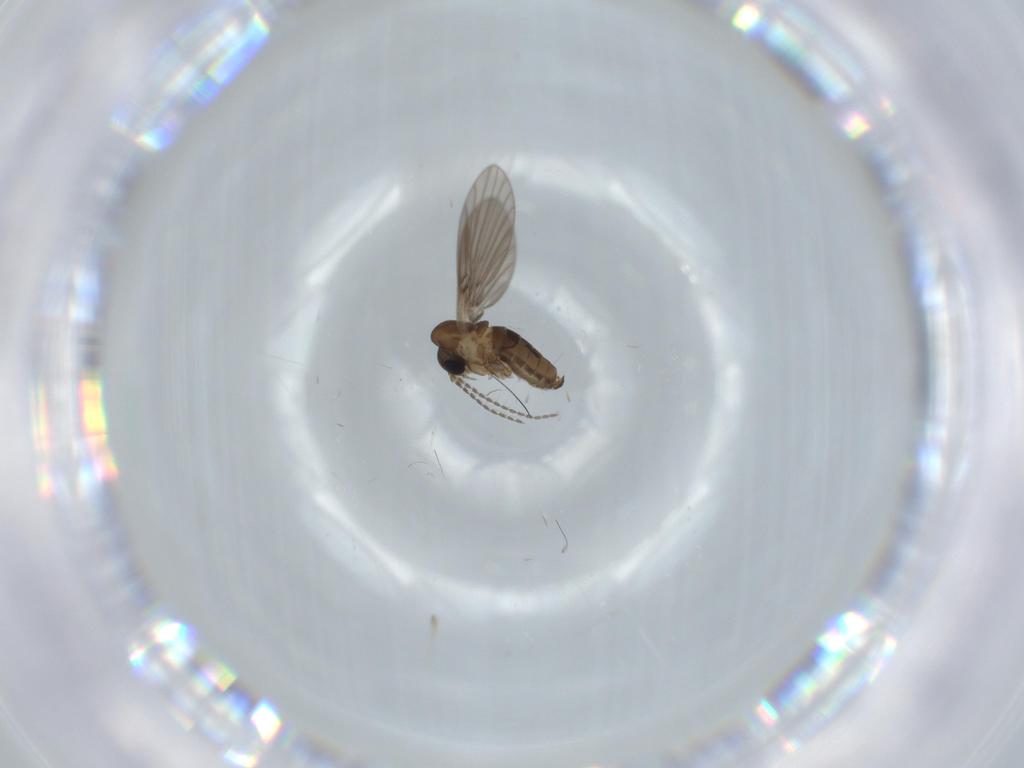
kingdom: Animalia
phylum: Arthropoda
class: Insecta
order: Diptera
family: Psychodidae
